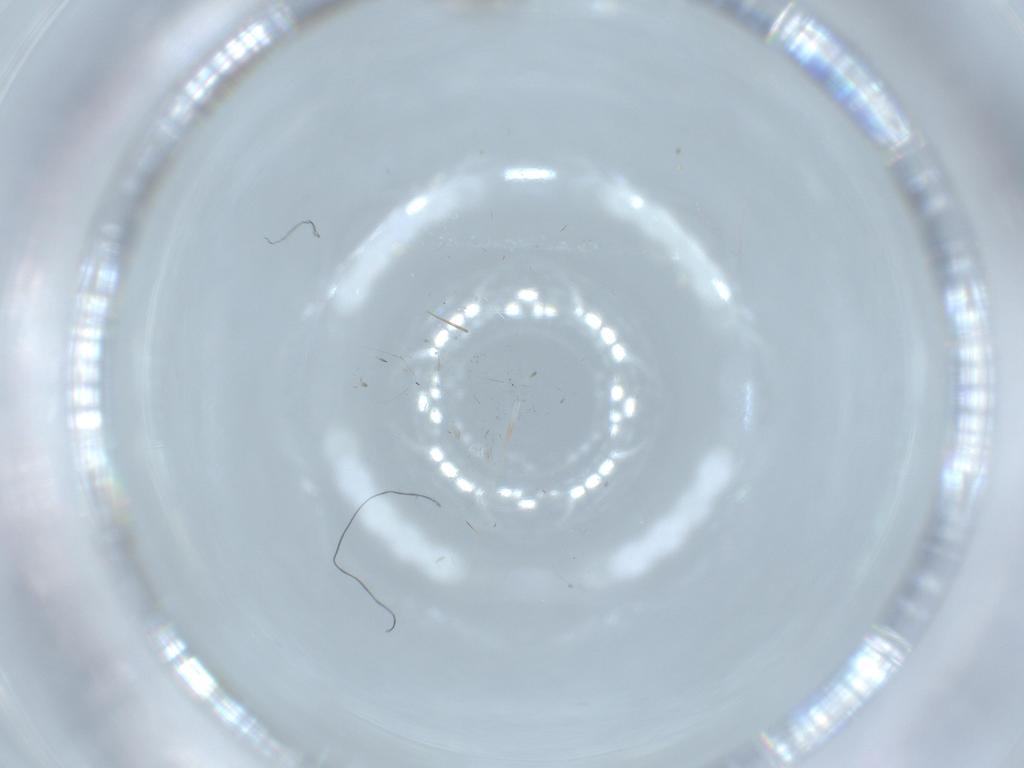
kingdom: Animalia
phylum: Arthropoda
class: Insecta
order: Diptera
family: Chironomidae
